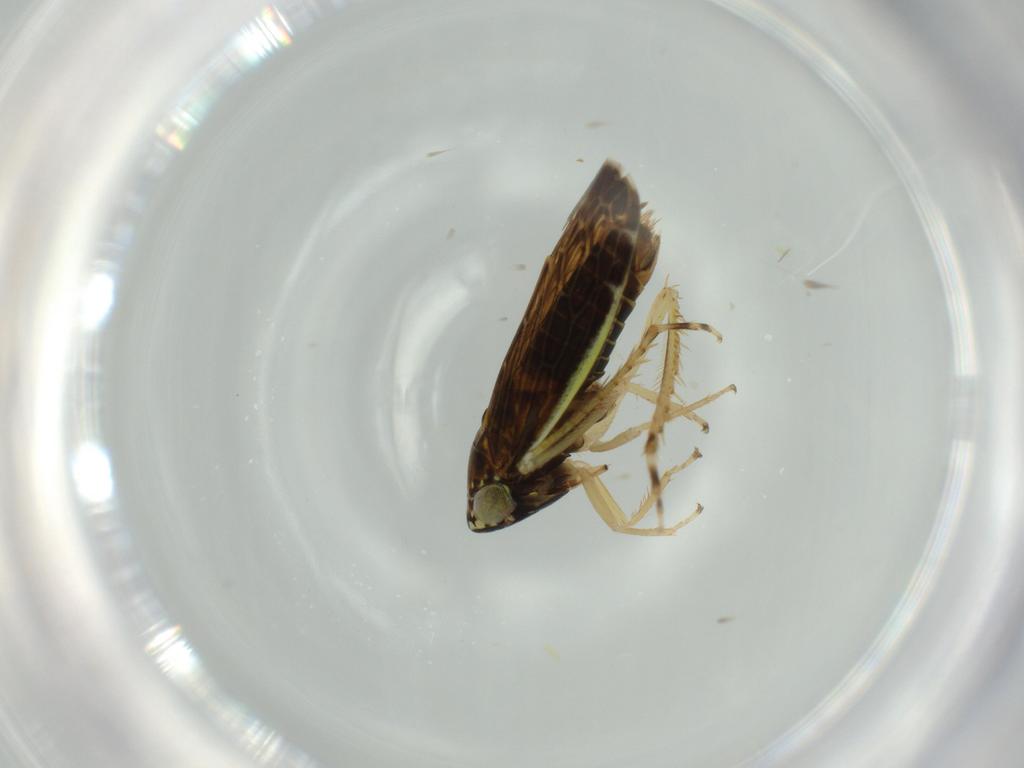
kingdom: Animalia
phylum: Arthropoda
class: Insecta
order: Hemiptera
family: Cicadellidae
